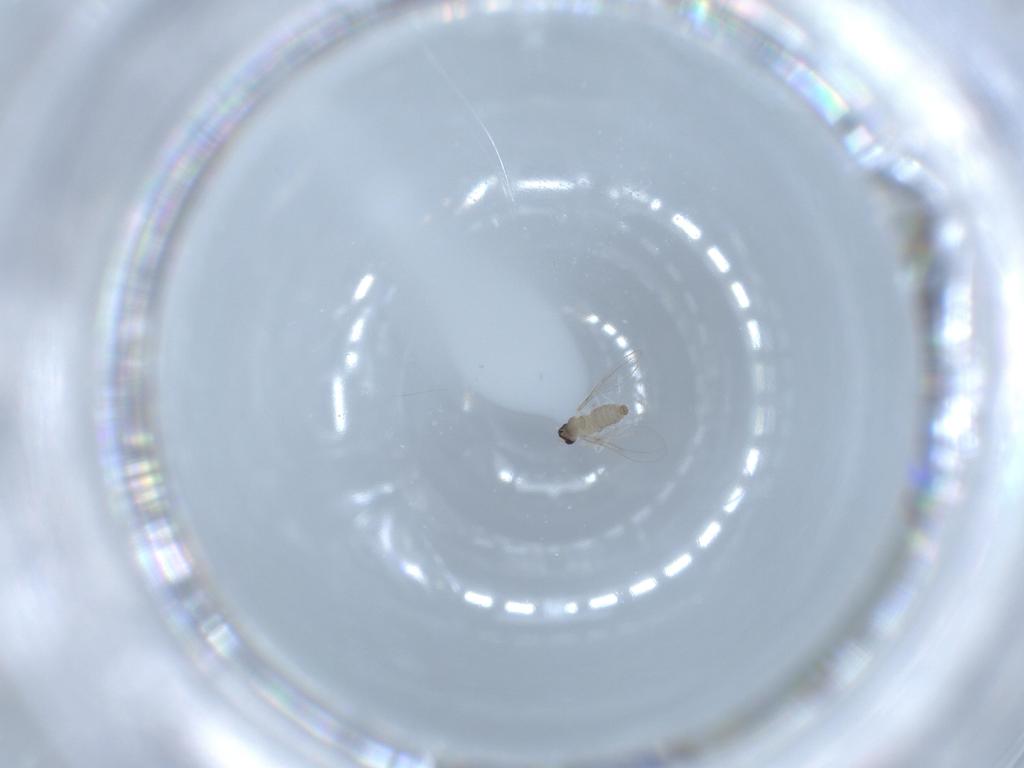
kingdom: Animalia
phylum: Arthropoda
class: Insecta
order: Diptera
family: Cecidomyiidae
